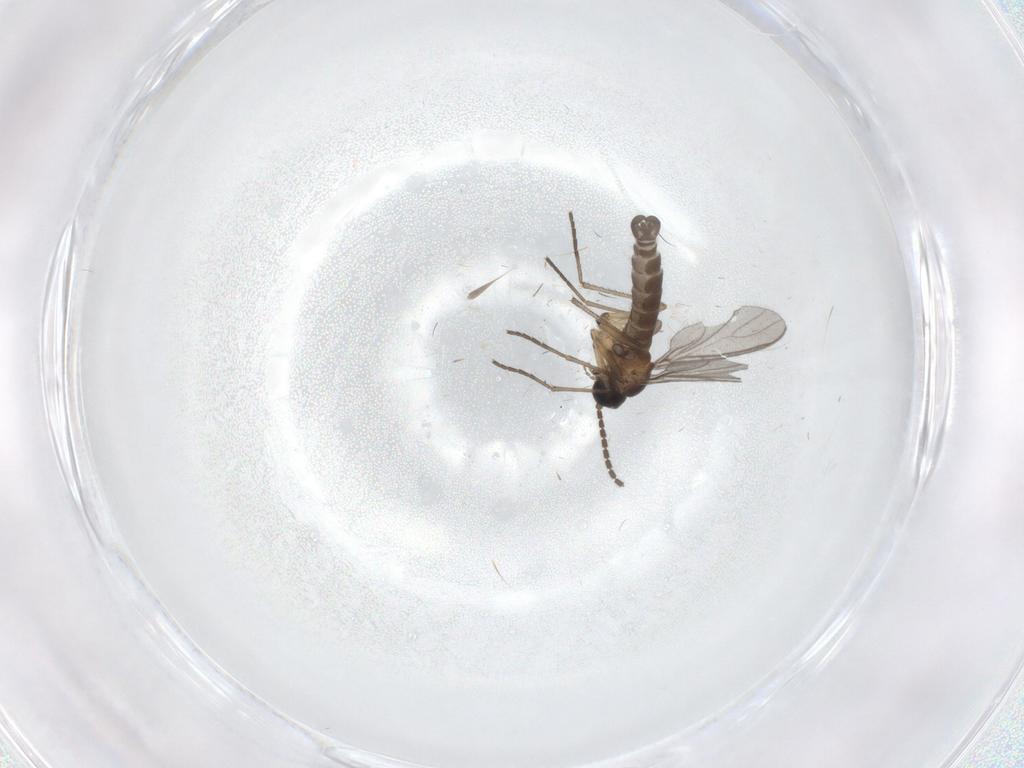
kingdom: Animalia
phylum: Arthropoda
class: Insecta
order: Diptera
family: Sciaridae
